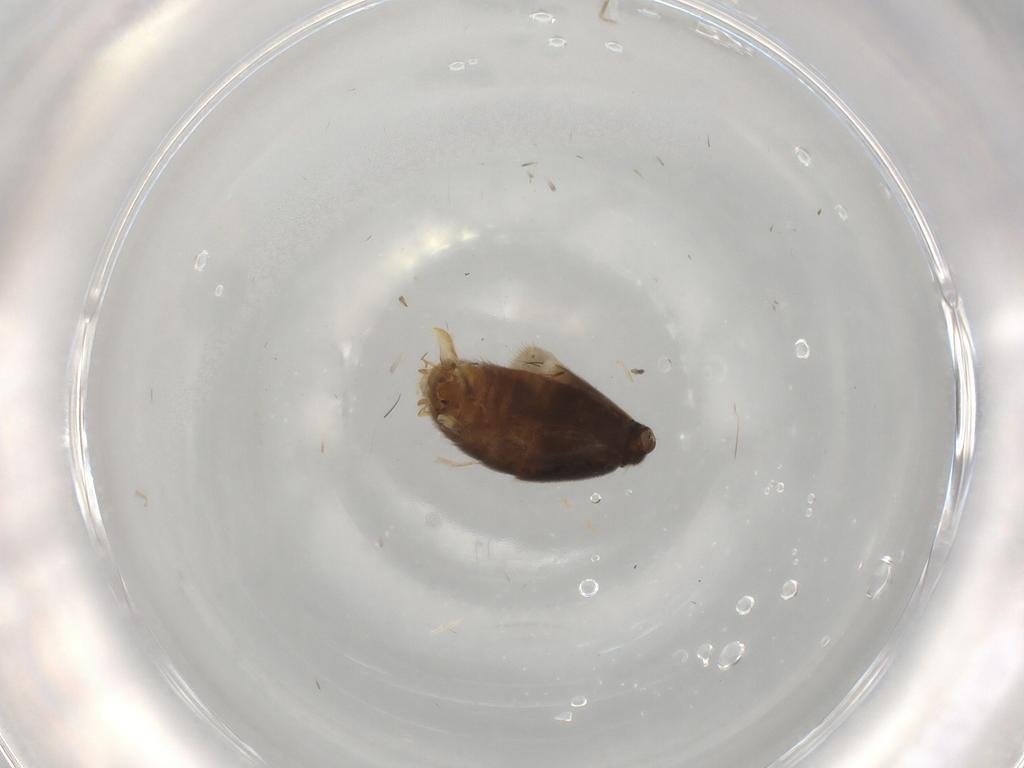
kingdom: Animalia
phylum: Arthropoda
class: Insecta
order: Hymenoptera
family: Formicidae
